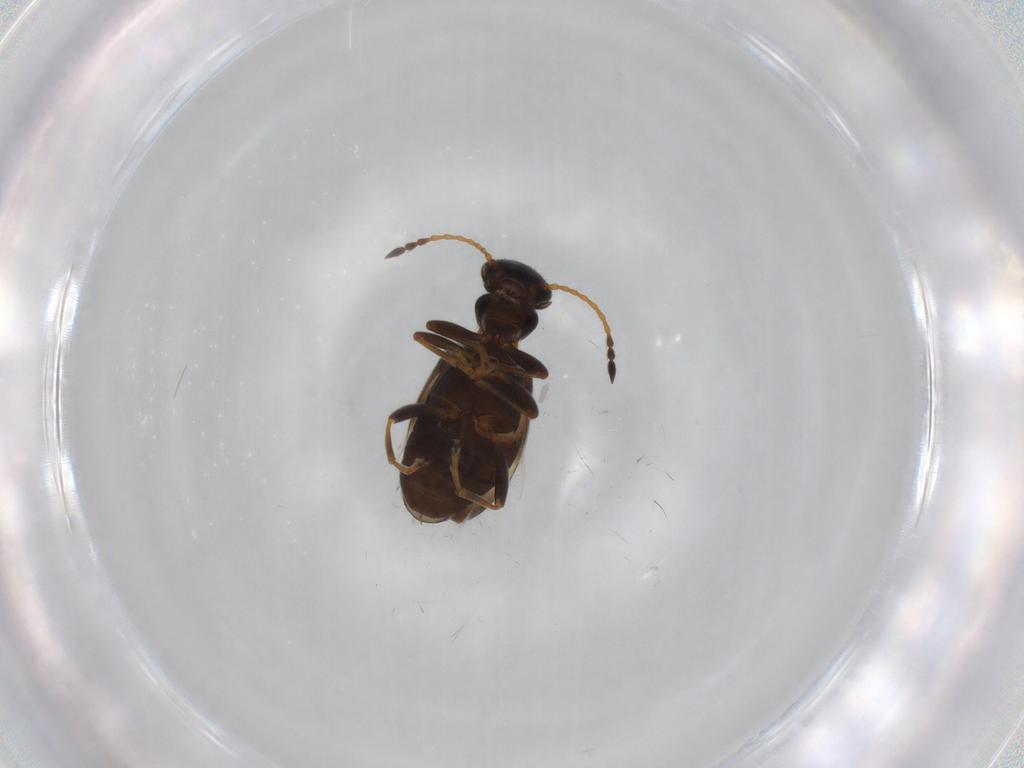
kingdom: Animalia
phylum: Arthropoda
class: Insecta
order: Coleoptera
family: Anthicidae
